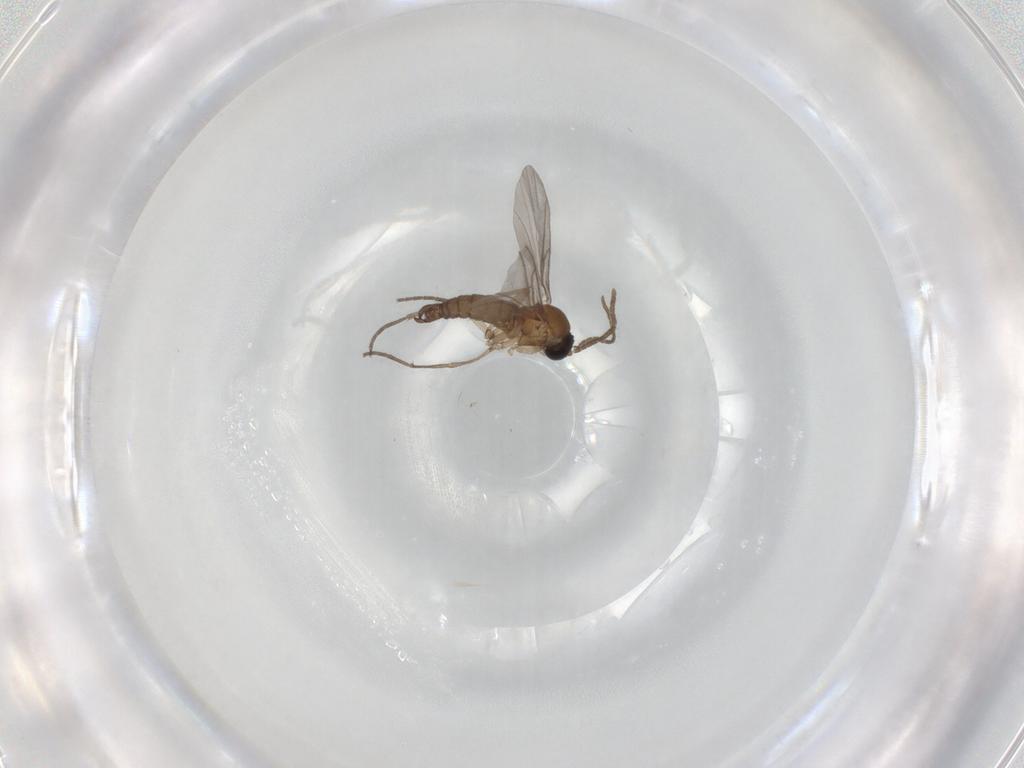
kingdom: Animalia
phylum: Arthropoda
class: Insecta
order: Diptera
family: Sciaridae
